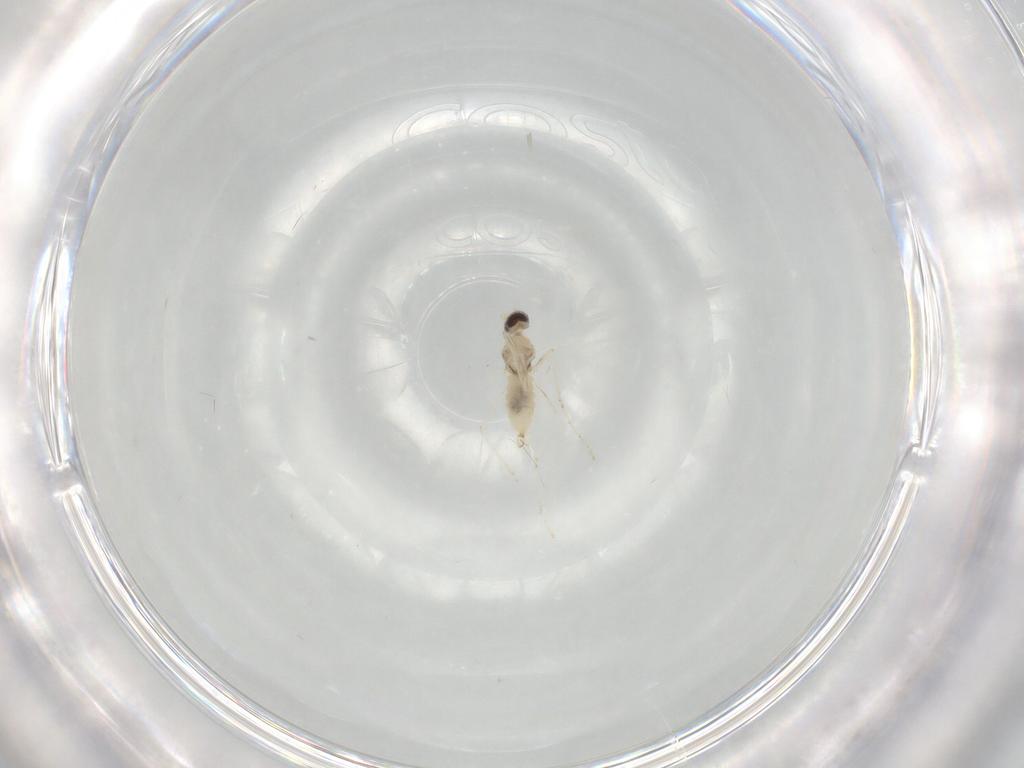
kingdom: Animalia
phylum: Arthropoda
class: Insecta
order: Diptera
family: Cecidomyiidae
